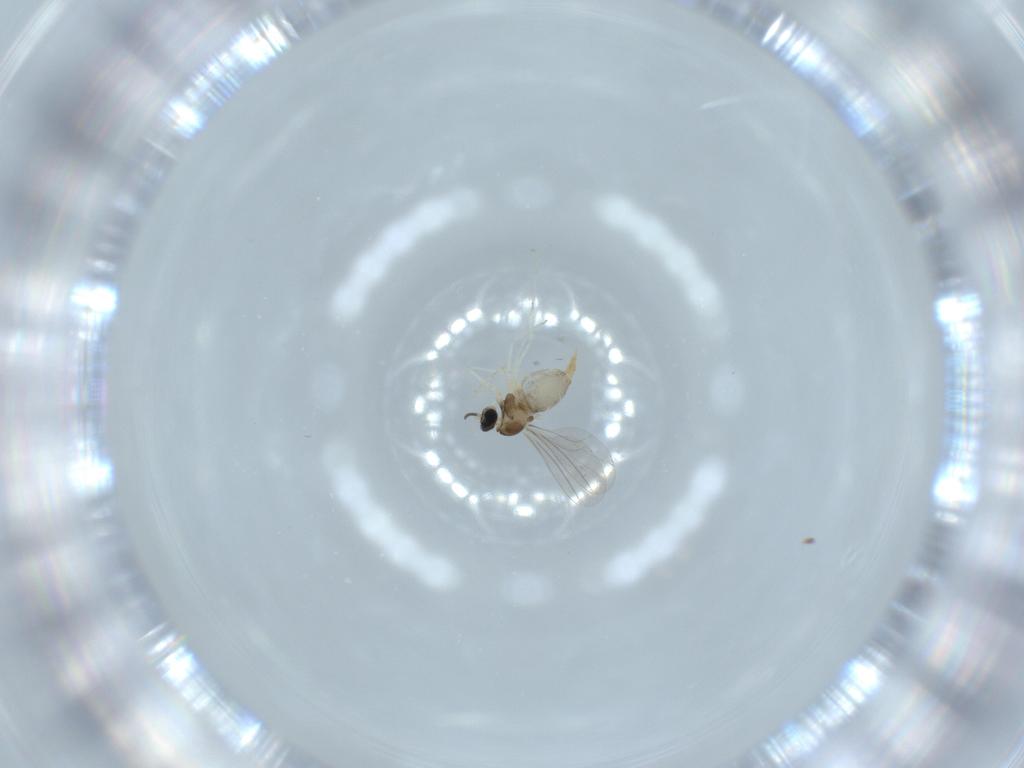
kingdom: Animalia
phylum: Arthropoda
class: Insecta
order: Diptera
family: Cecidomyiidae
